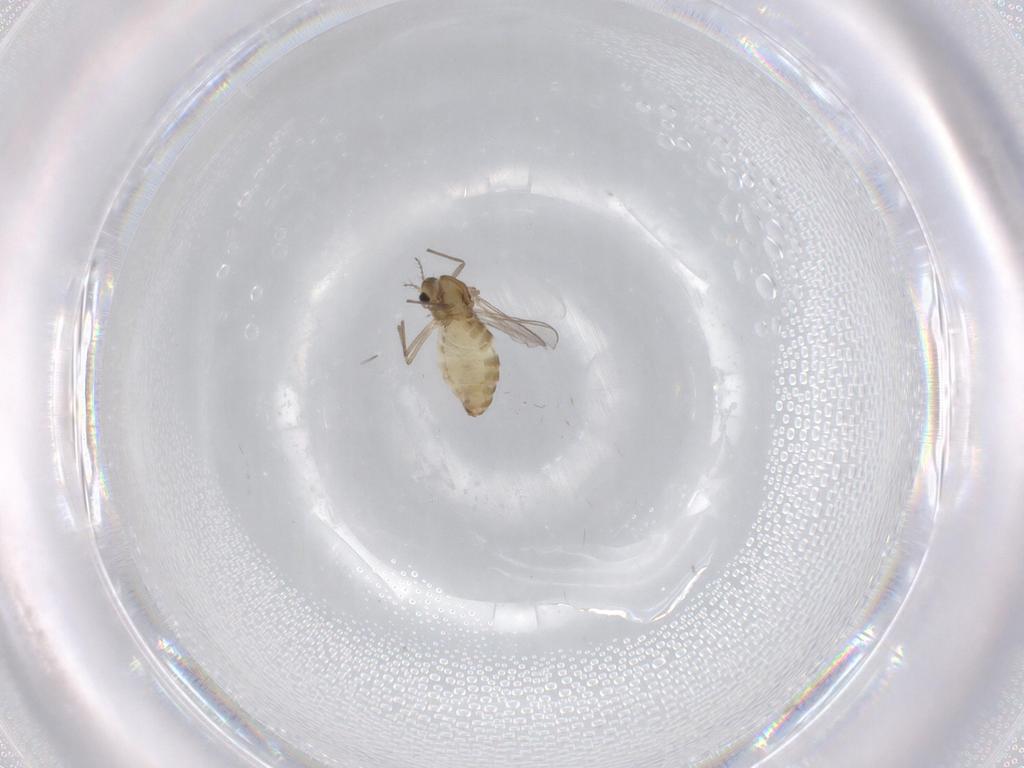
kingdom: Animalia
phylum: Arthropoda
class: Insecta
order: Diptera
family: Chironomidae
